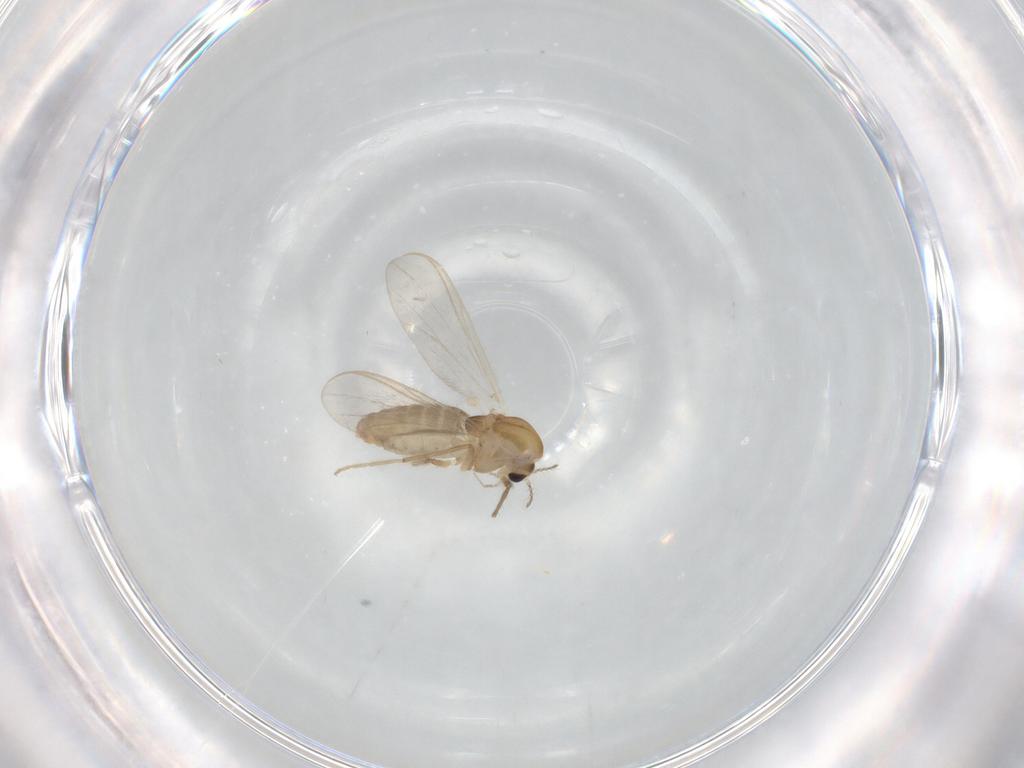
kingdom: Animalia
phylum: Arthropoda
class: Insecta
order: Diptera
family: Chironomidae
